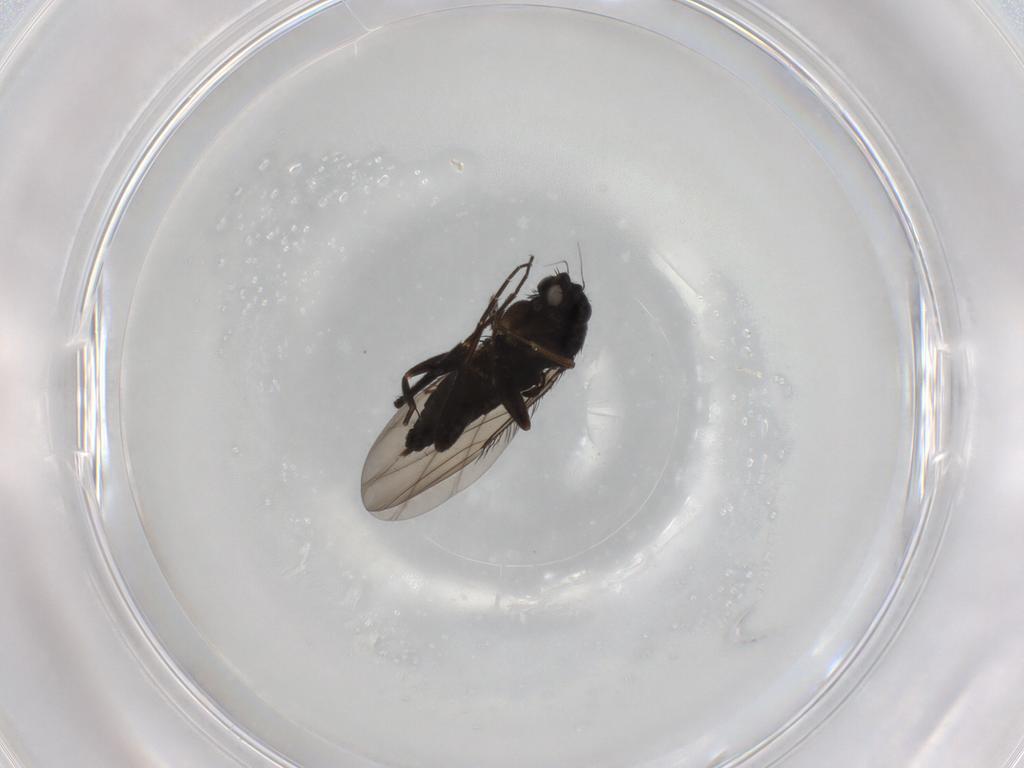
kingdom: Animalia
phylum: Arthropoda
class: Insecta
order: Diptera
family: Phoridae
